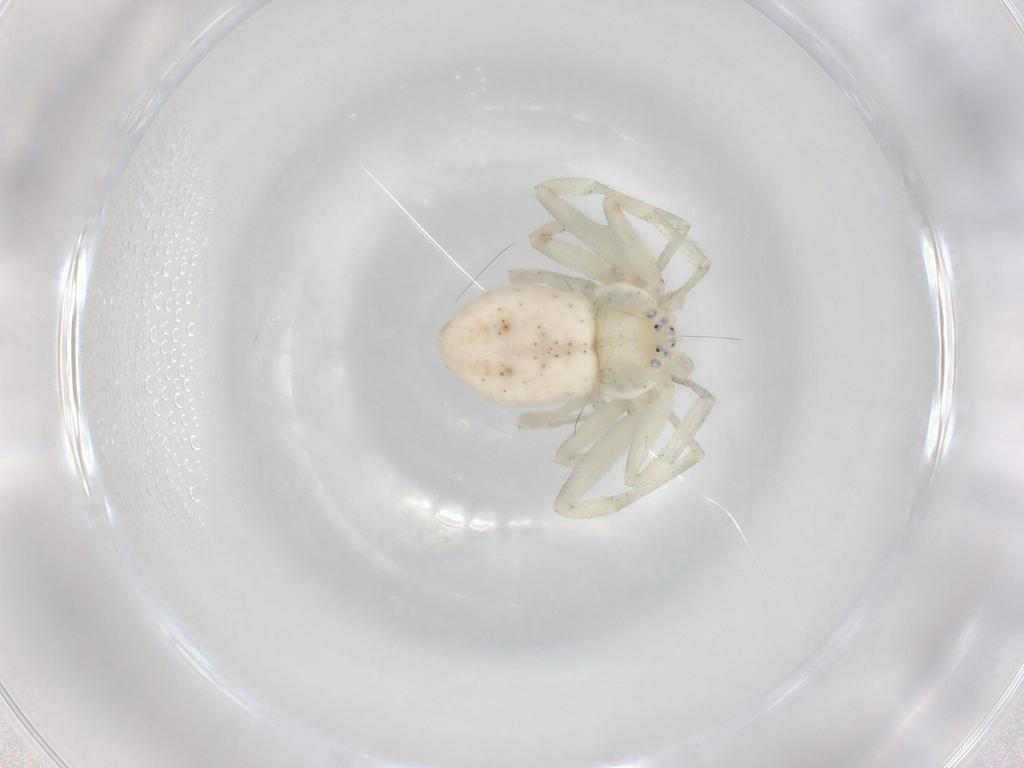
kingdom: Animalia
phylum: Arthropoda
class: Arachnida
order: Araneae
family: Philodromidae
